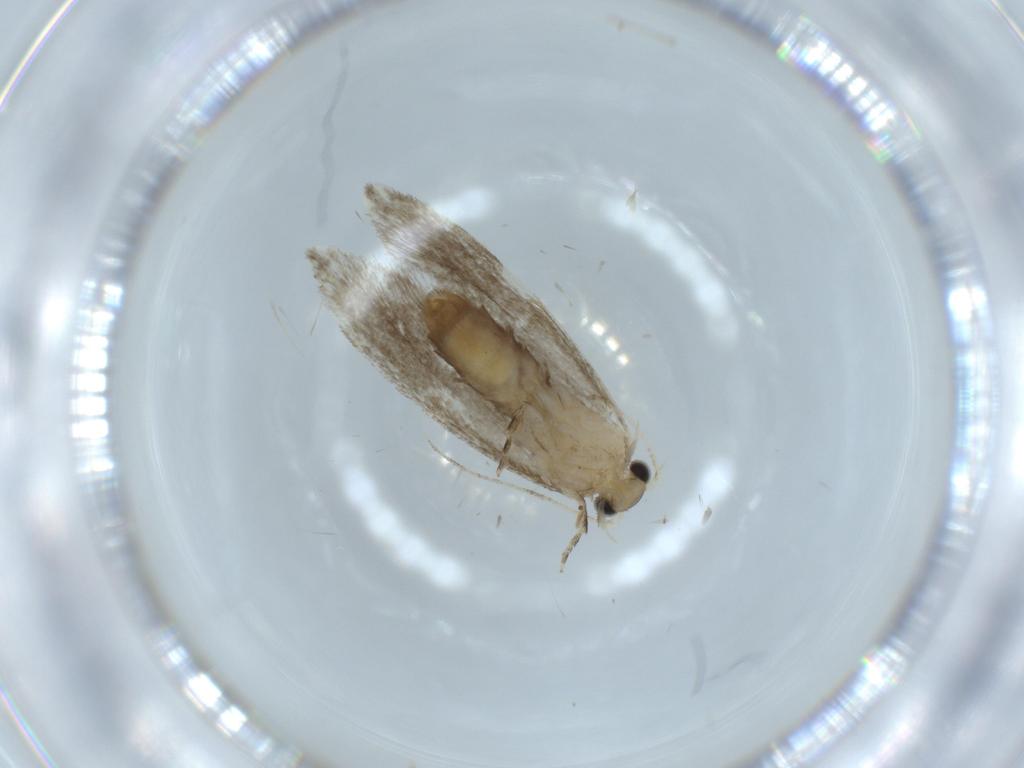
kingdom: Animalia
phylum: Arthropoda
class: Insecta
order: Lepidoptera
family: Tineidae
